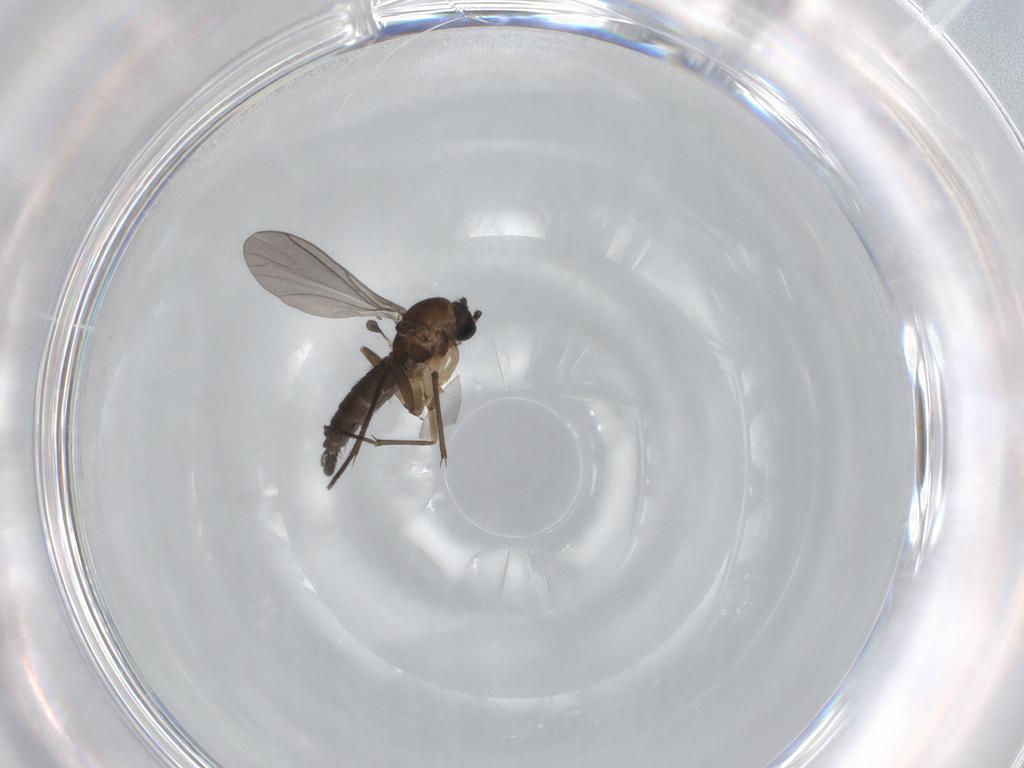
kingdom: Animalia
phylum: Arthropoda
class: Insecta
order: Diptera
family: Sciaridae
